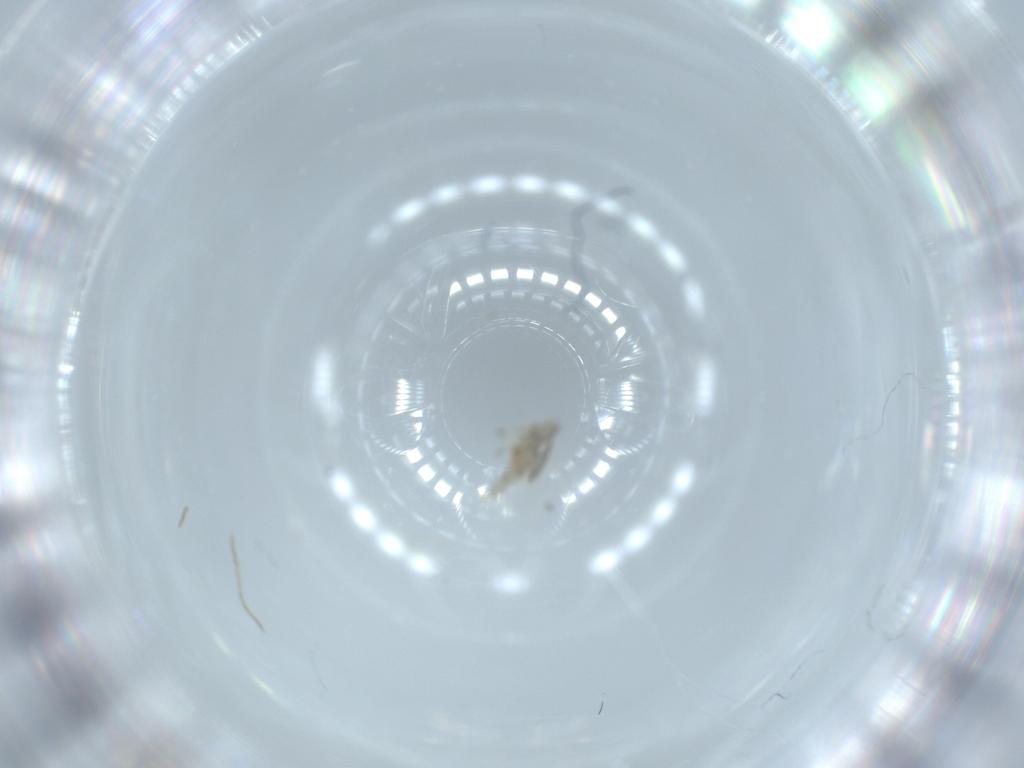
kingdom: Animalia
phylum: Arthropoda
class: Insecta
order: Hymenoptera
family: Aphelinidae
